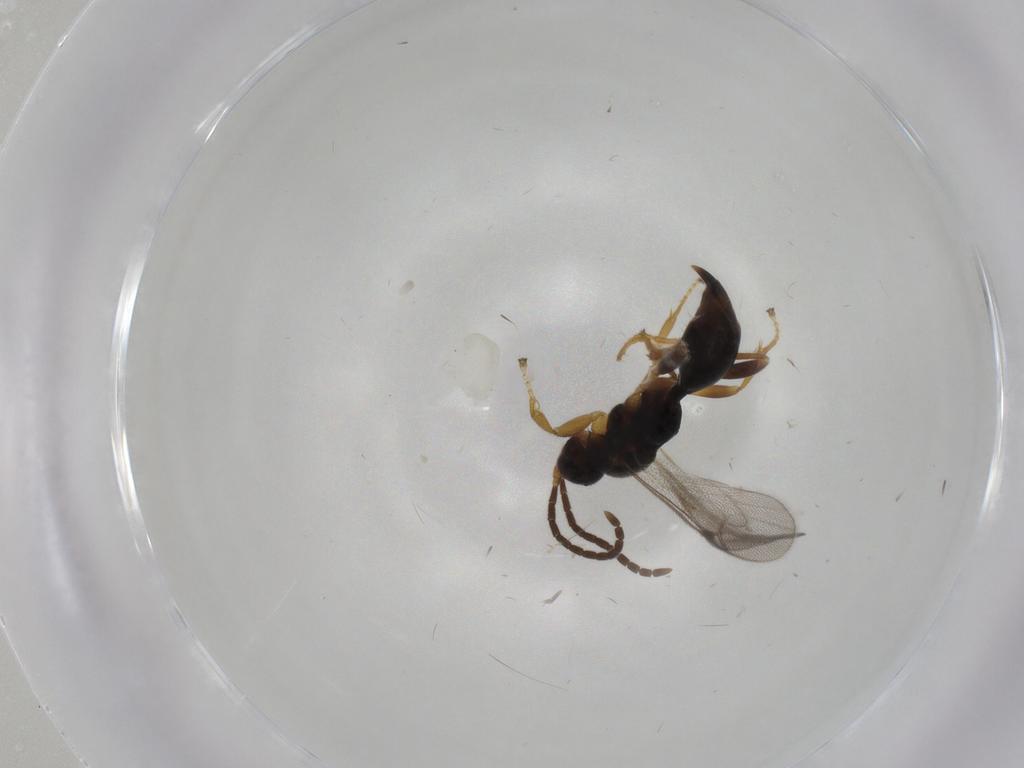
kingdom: Animalia
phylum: Arthropoda
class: Insecta
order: Hymenoptera
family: Proctotrupidae
